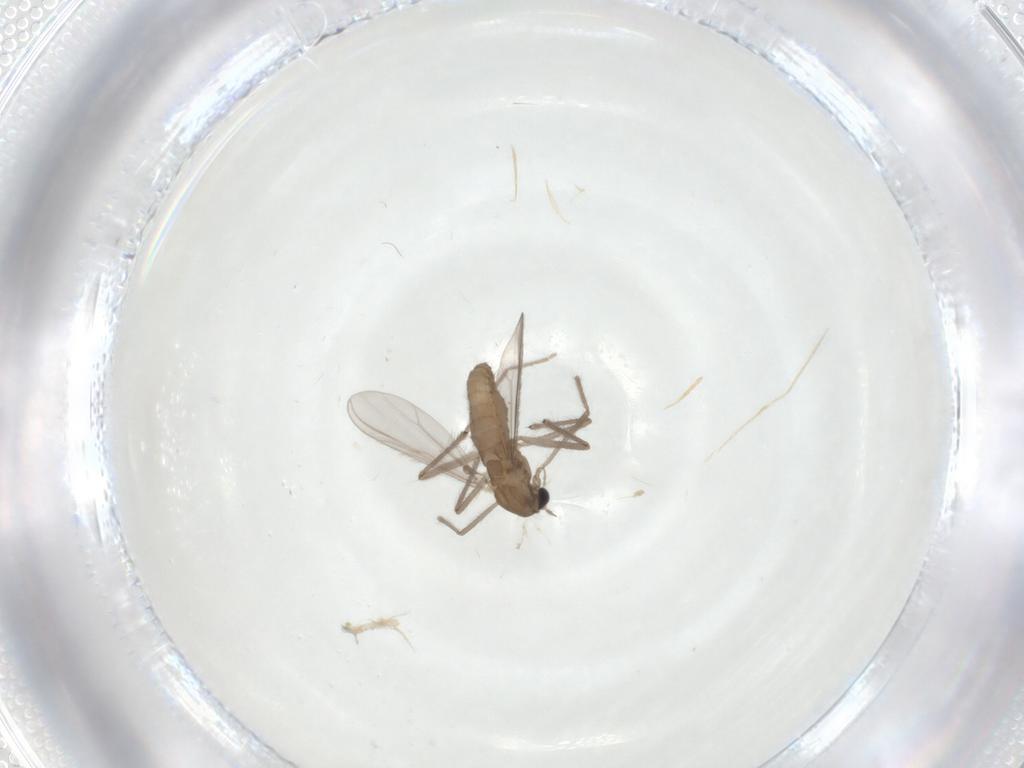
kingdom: Animalia
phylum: Arthropoda
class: Insecta
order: Diptera
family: Chironomidae
